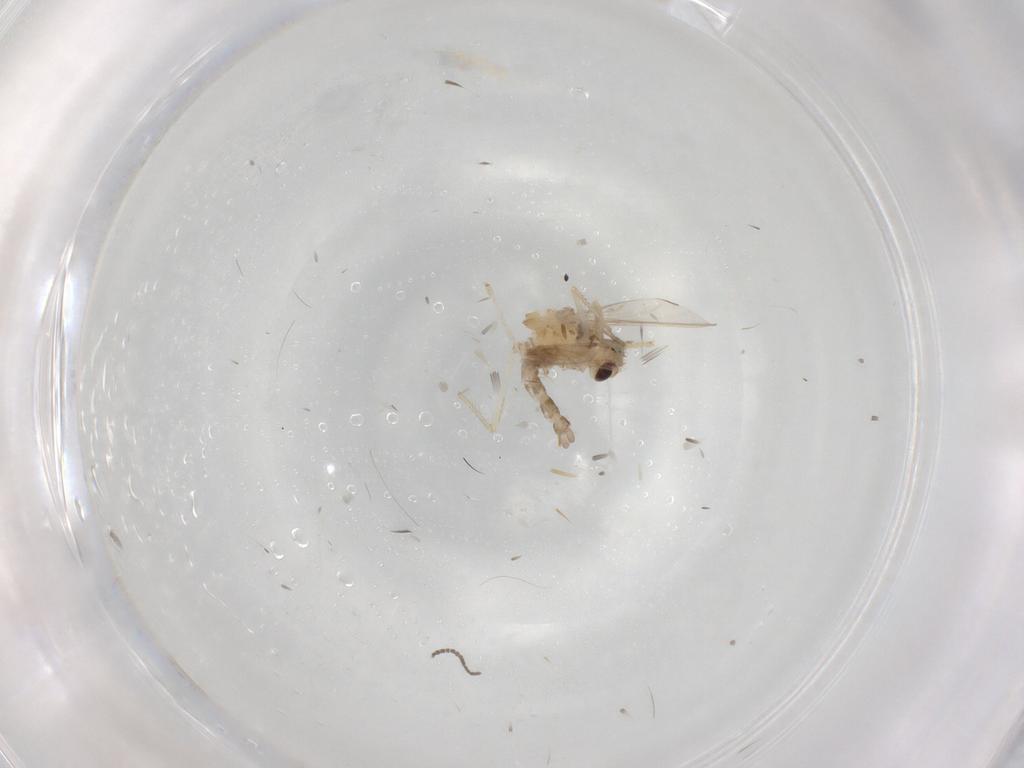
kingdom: Animalia
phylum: Arthropoda
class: Insecta
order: Diptera
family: Chironomidae
